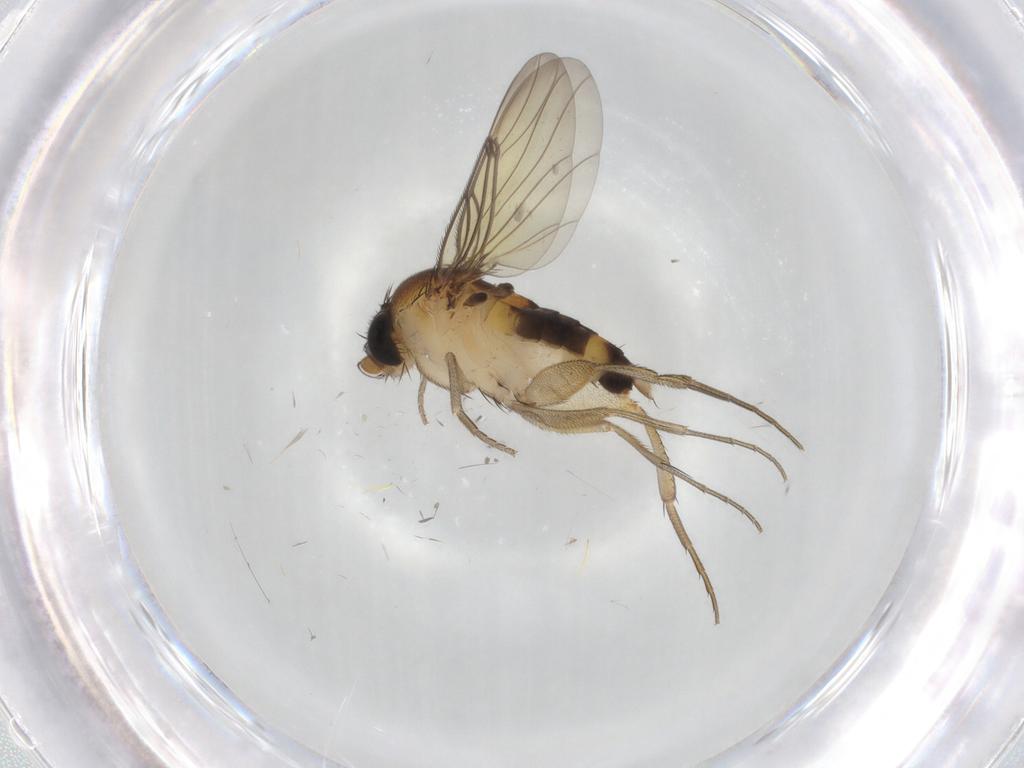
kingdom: Animalia
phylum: Arthropoda
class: Insecta
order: Diptera
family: Phoridae
